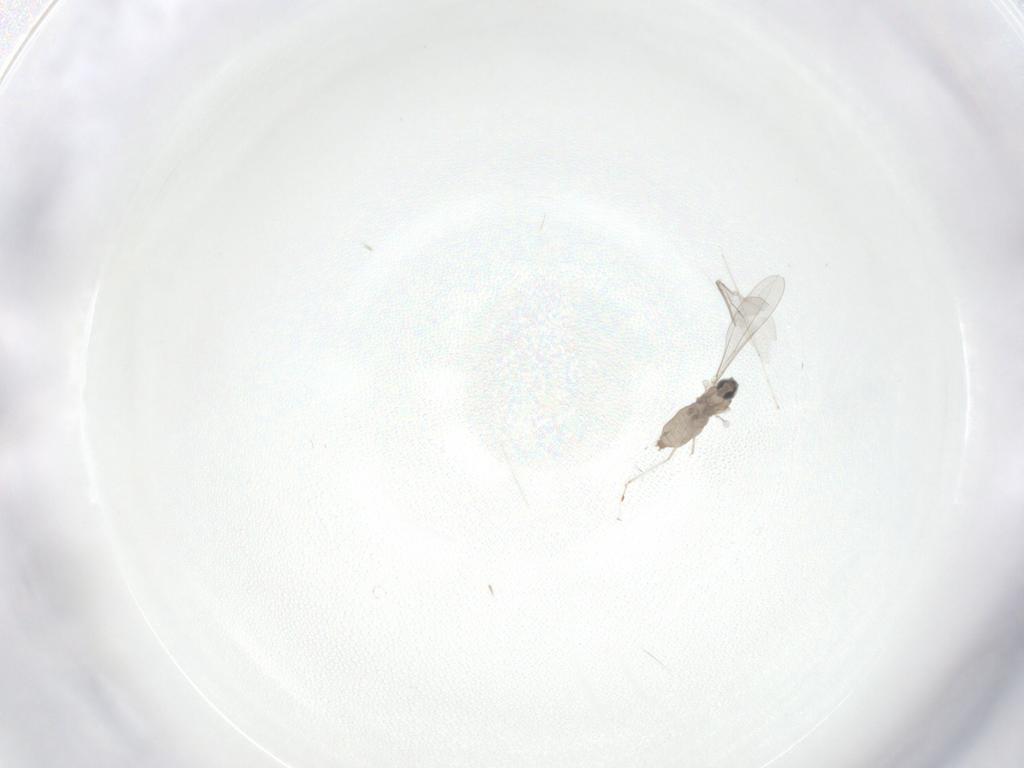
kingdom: Animalia
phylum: Arthropoda
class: Insecta
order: Diptera
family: Cecidomyiidae
